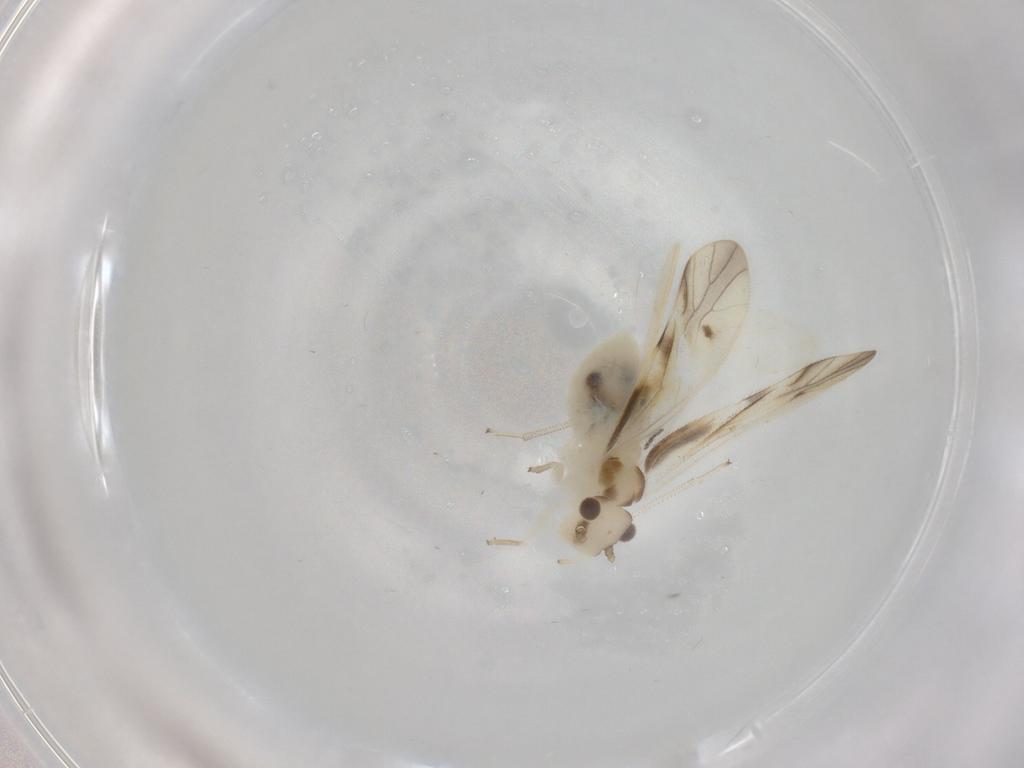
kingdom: Animalia
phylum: Arthropoda
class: Insecta
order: Psocodea
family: Caeciliusidae
